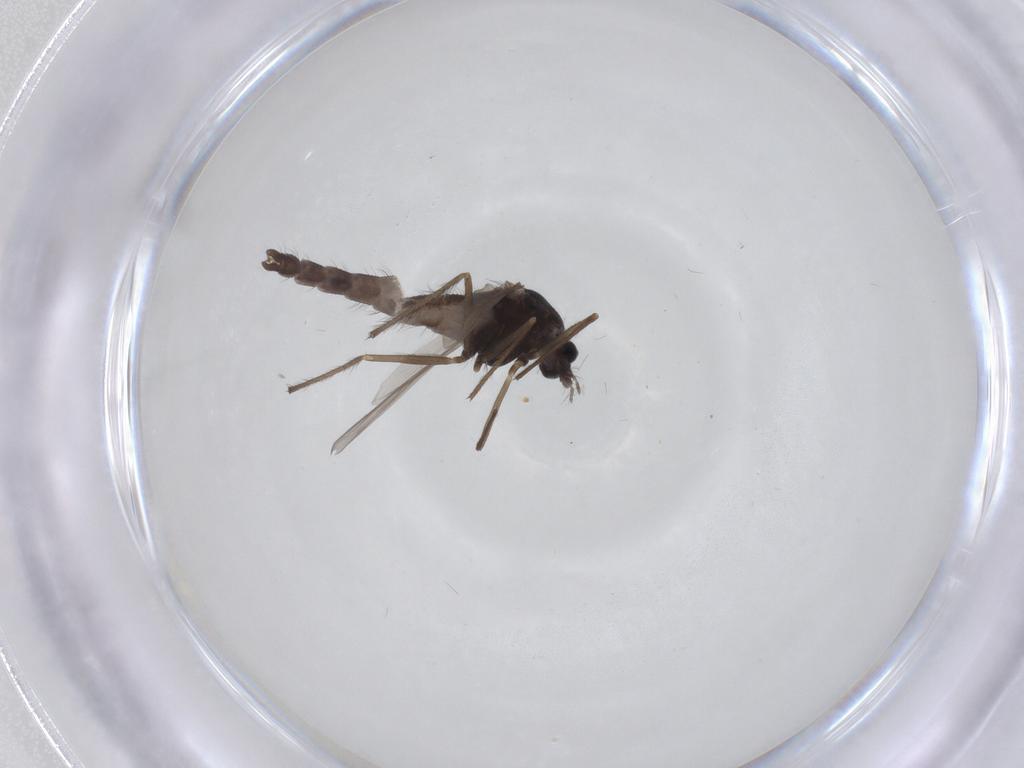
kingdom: Animalia
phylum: Arthropoda
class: Insecta
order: Diptera
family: Chironomidae
